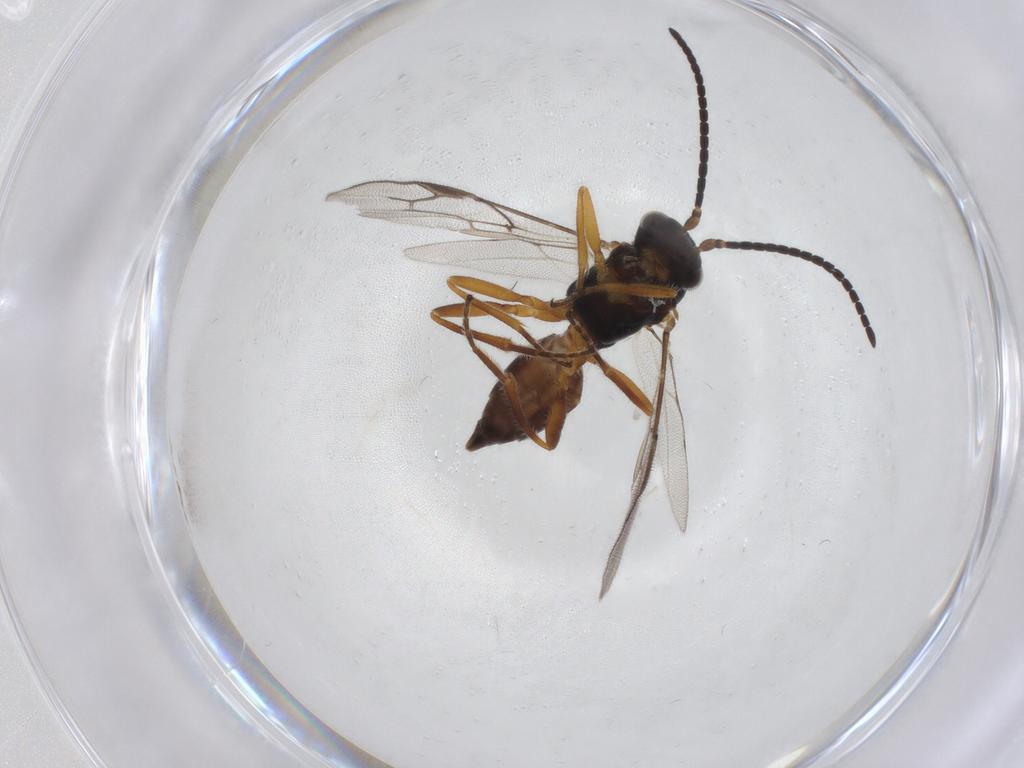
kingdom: Animalia
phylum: Arthropoda
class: Insecta
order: Hymenoptera
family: Braconidae
